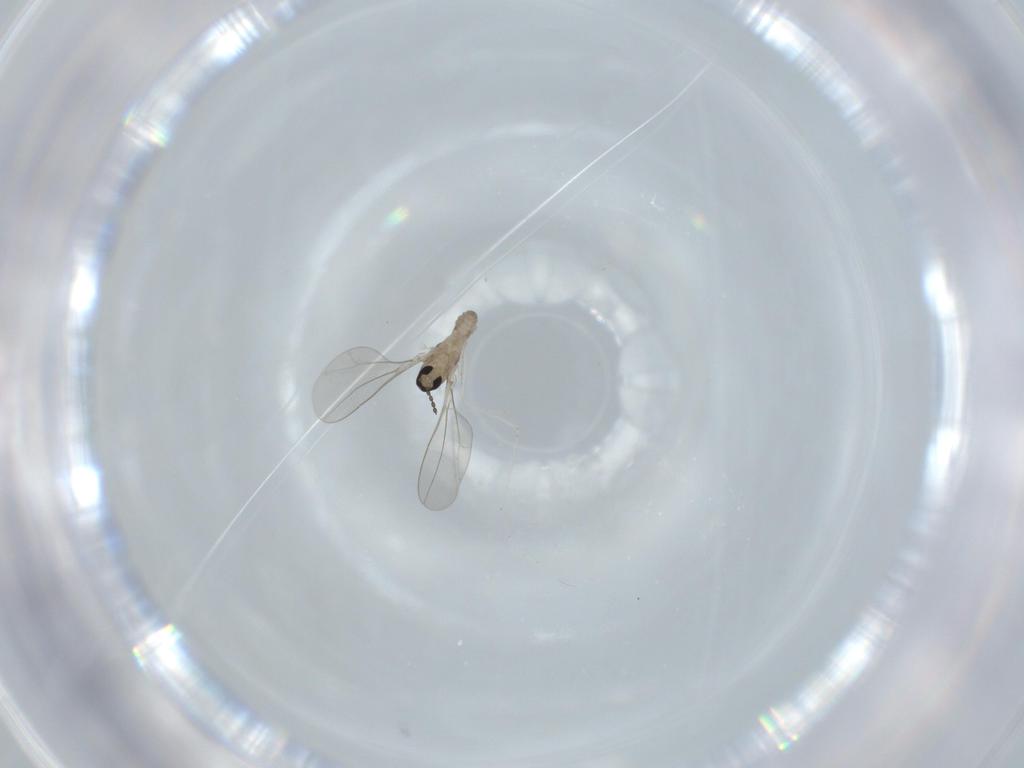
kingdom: Animalia
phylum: Arthropoda
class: Insecta
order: Diptera
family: Cecidomyiidae
